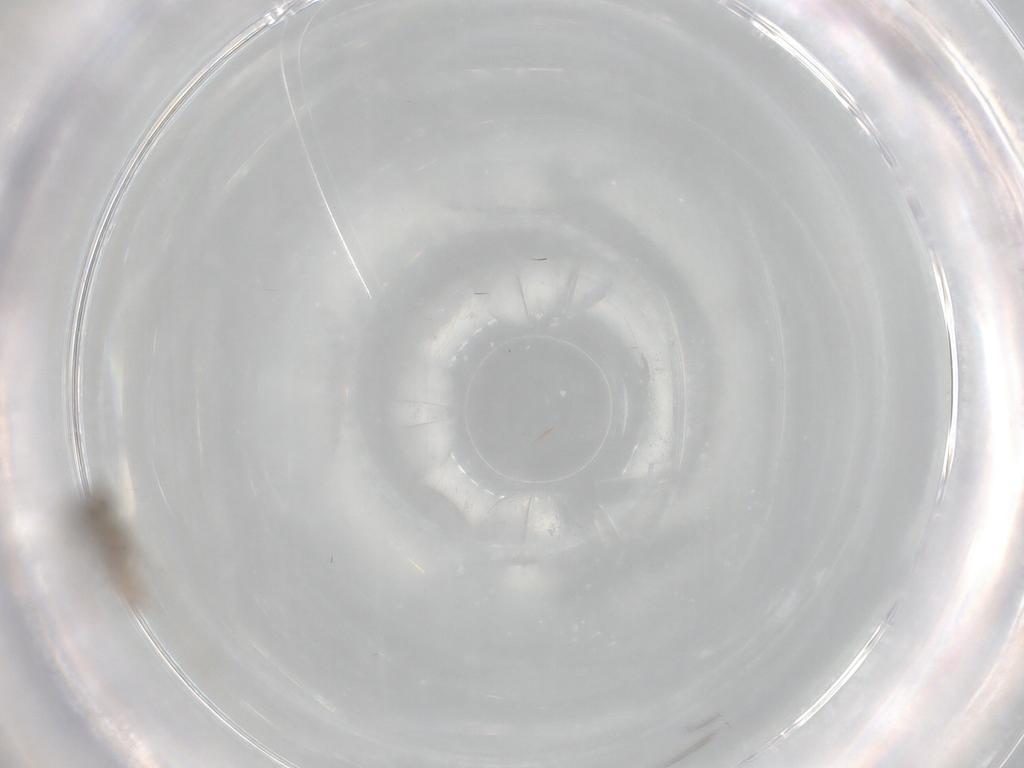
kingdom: Animalia
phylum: Arthropoda
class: Insecta
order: Diptera
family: Cecidomyiidae
